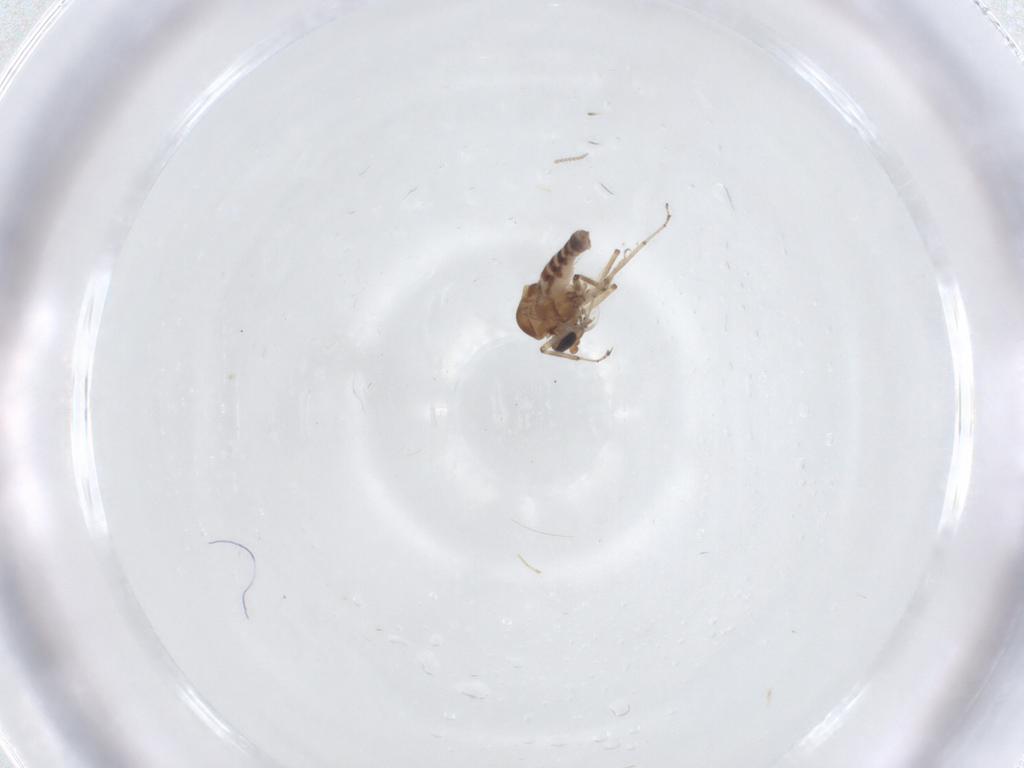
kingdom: Animalia
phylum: Arthropoda
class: Insecta
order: Diptera
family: Ceratopogonidae
